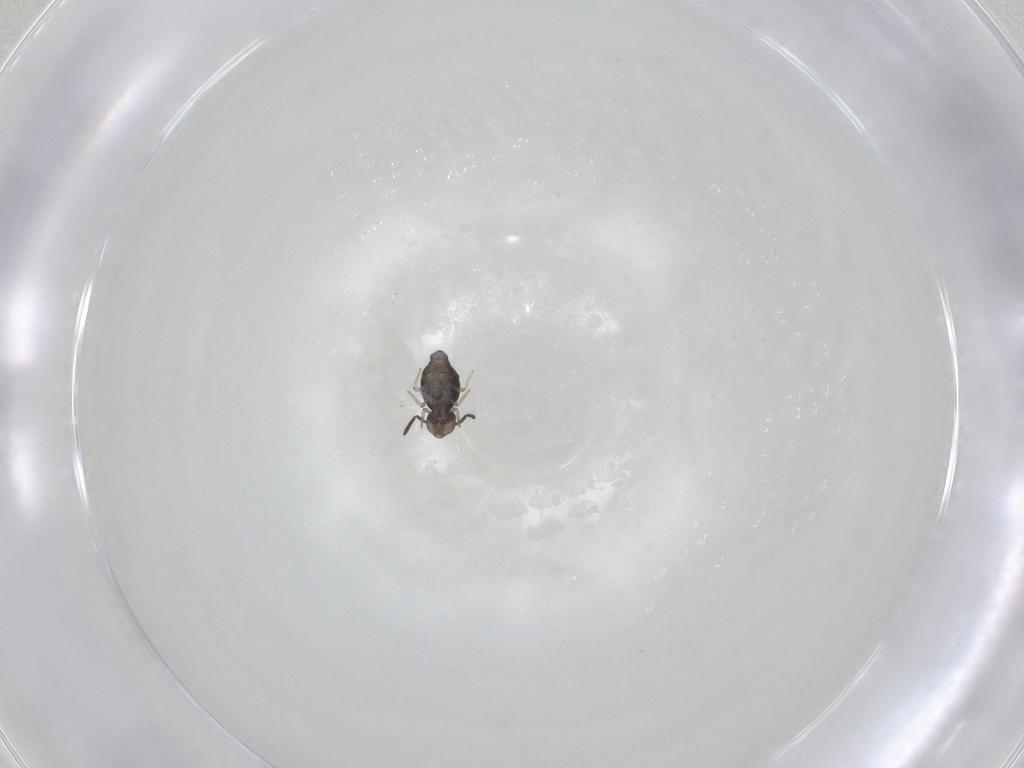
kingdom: Animalia
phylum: Arthropoda
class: Collembola
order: Symphypleona
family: Katiannidae
